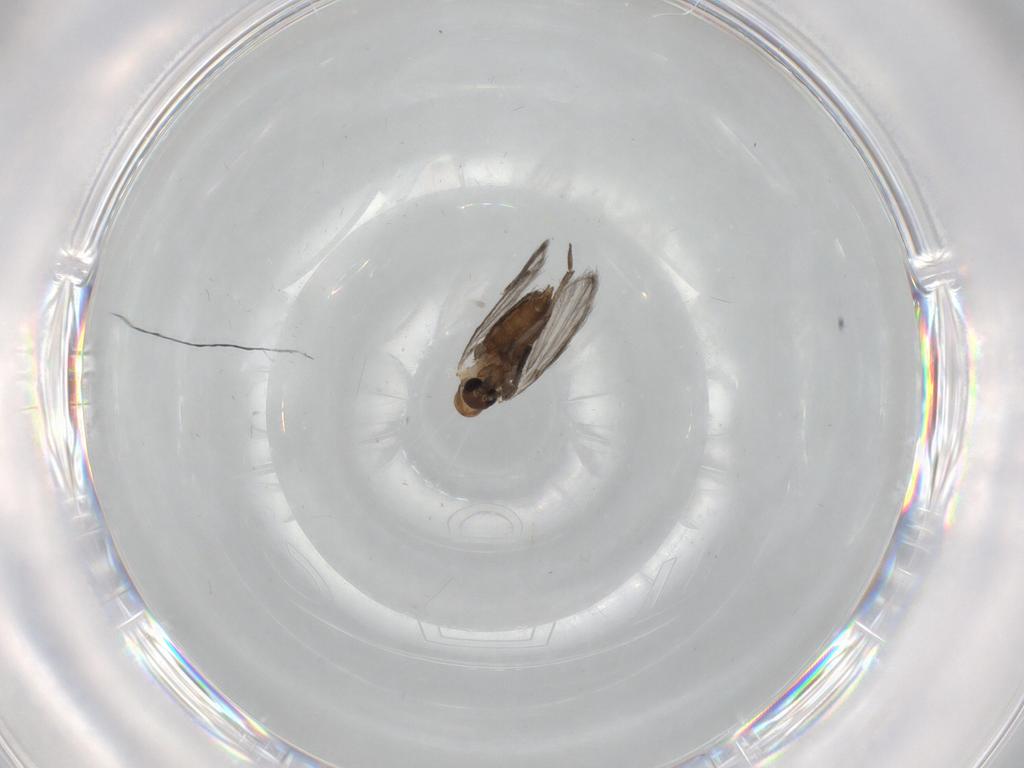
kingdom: Animalia
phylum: Arthropoda
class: Insecta
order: Diptera
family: Psychodidae
